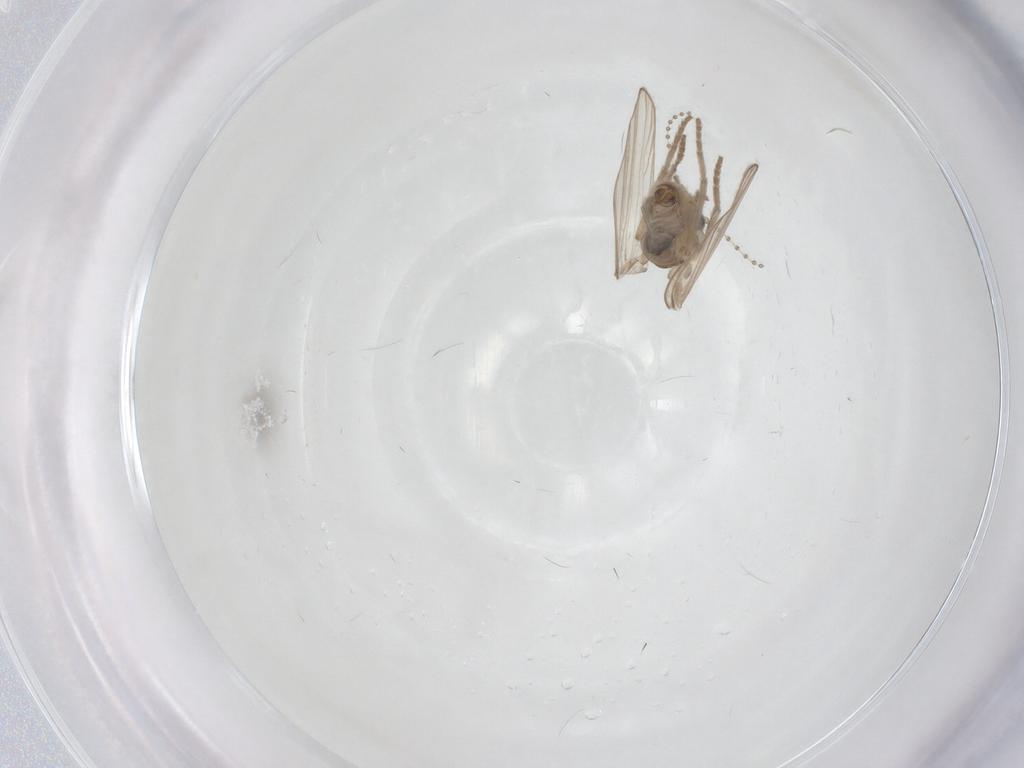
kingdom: Animalia
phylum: Arthropoda
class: Insecta
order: Diptera
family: Psychodidae
